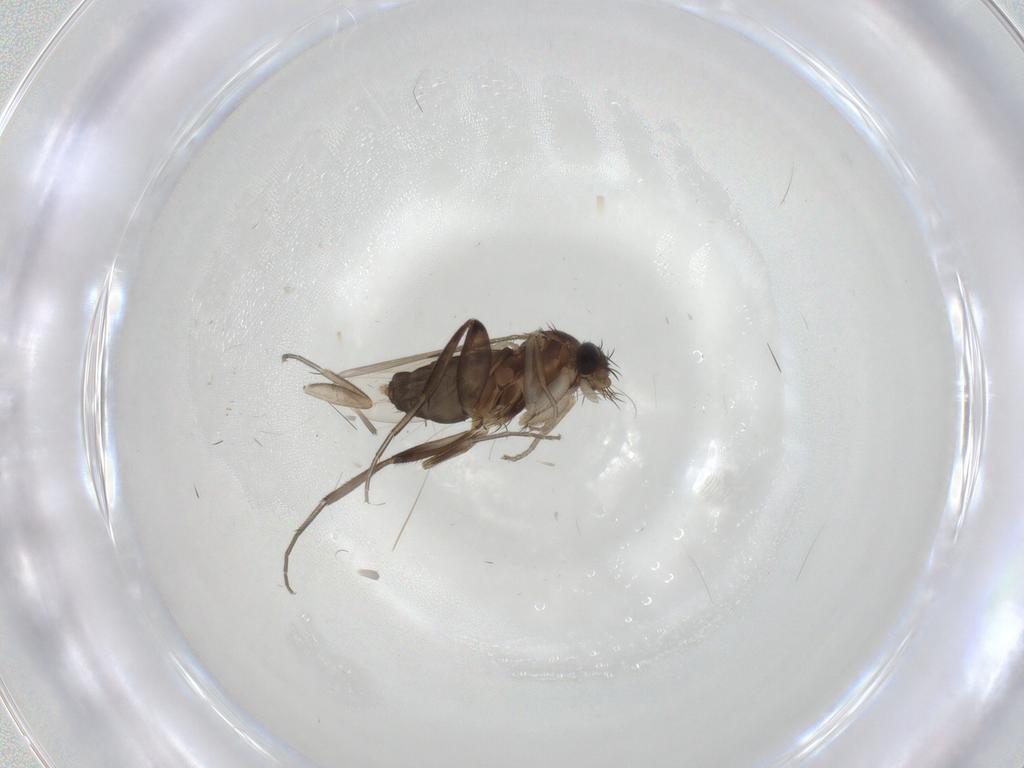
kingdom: Animalia
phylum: Arthropoda
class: Insecta
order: Diptera
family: Phoridae
